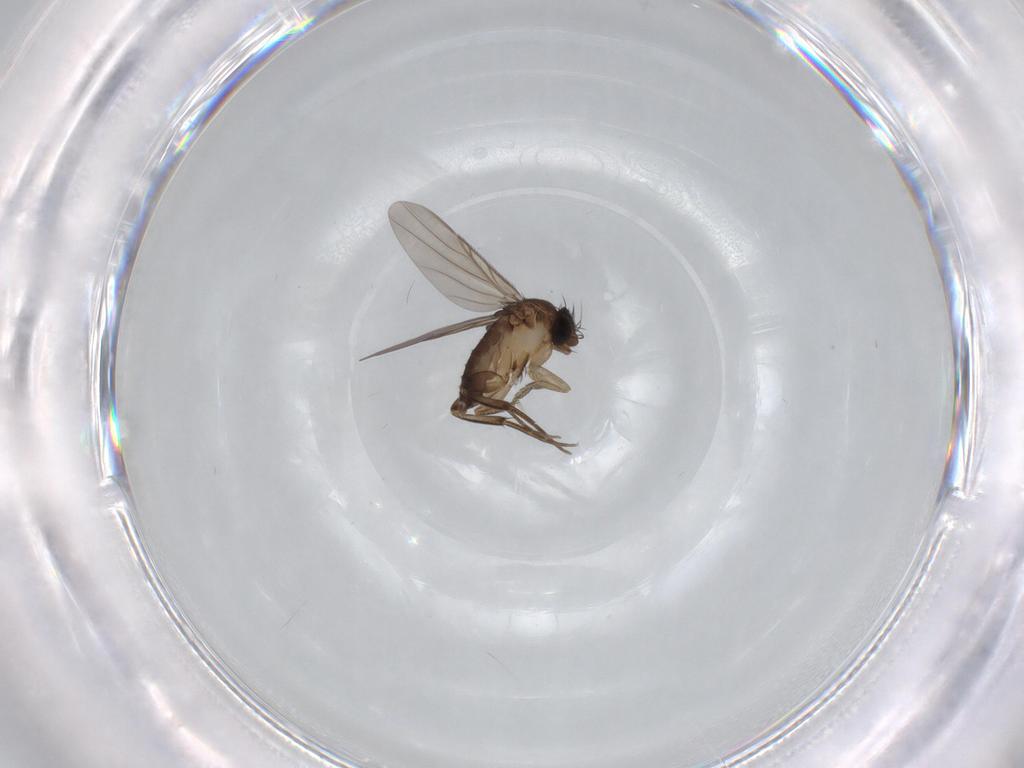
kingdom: Animalia
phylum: Arthropoda
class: Insecta
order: Diptera
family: Phoridae
